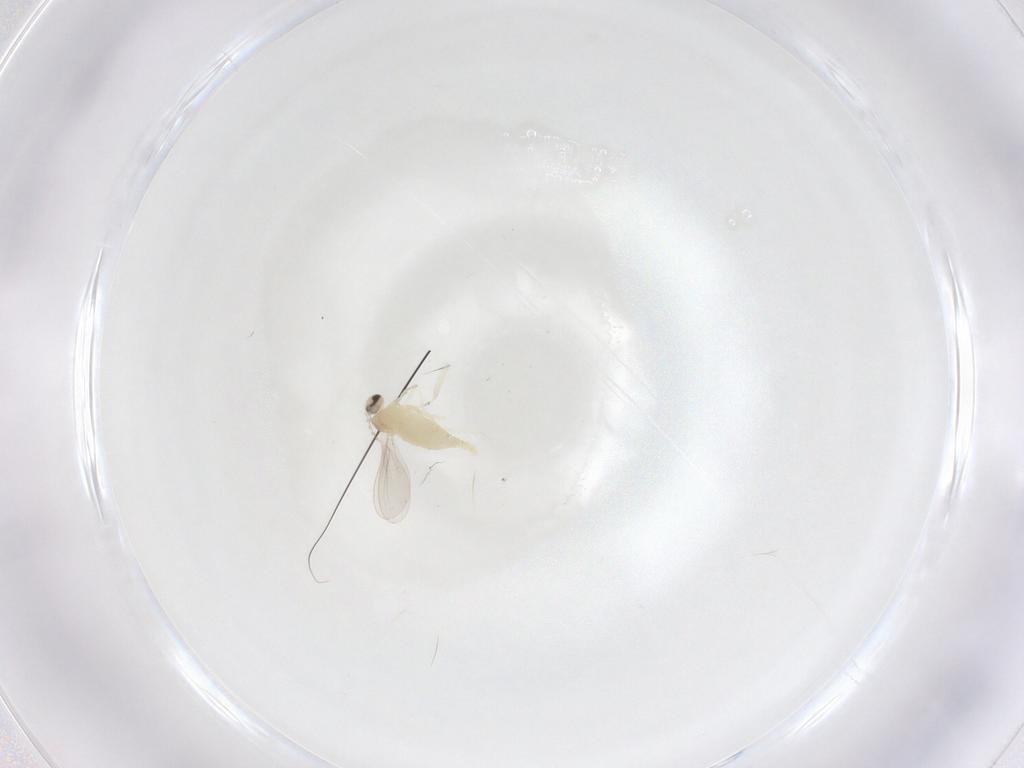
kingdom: Animalia
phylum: Arthropoda
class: Insecta
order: Diptera
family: Cecidomyiidae
